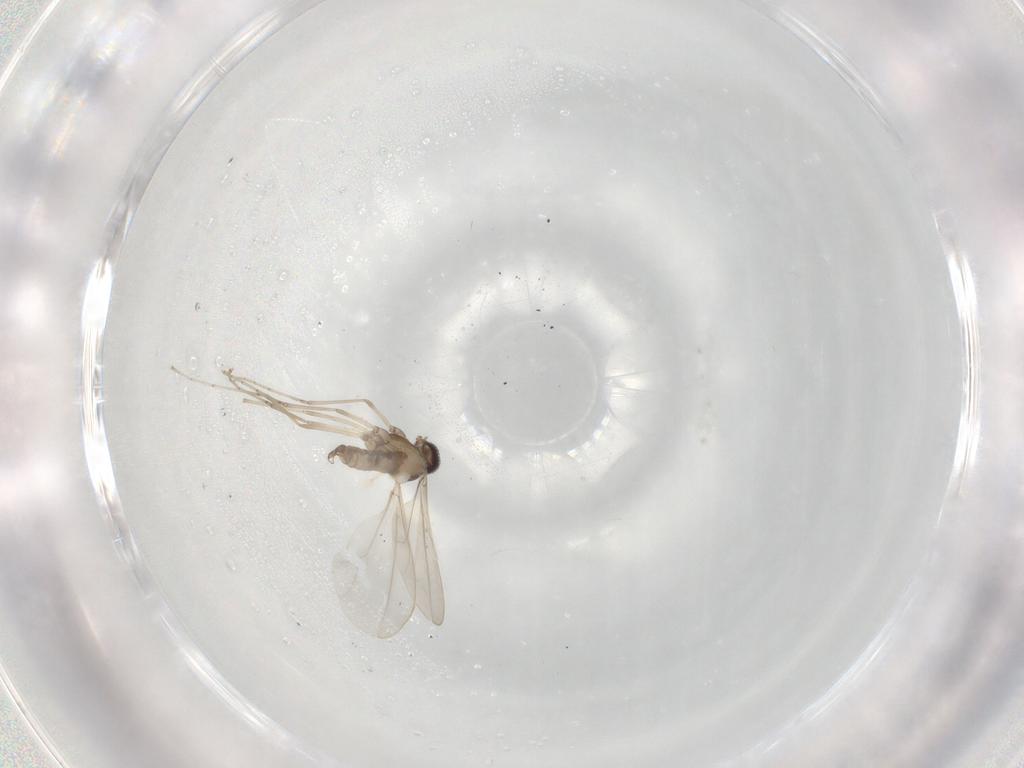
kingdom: Animalia
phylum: Arthropoda
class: Insecta
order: Diptera
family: Cecidomyiidae
